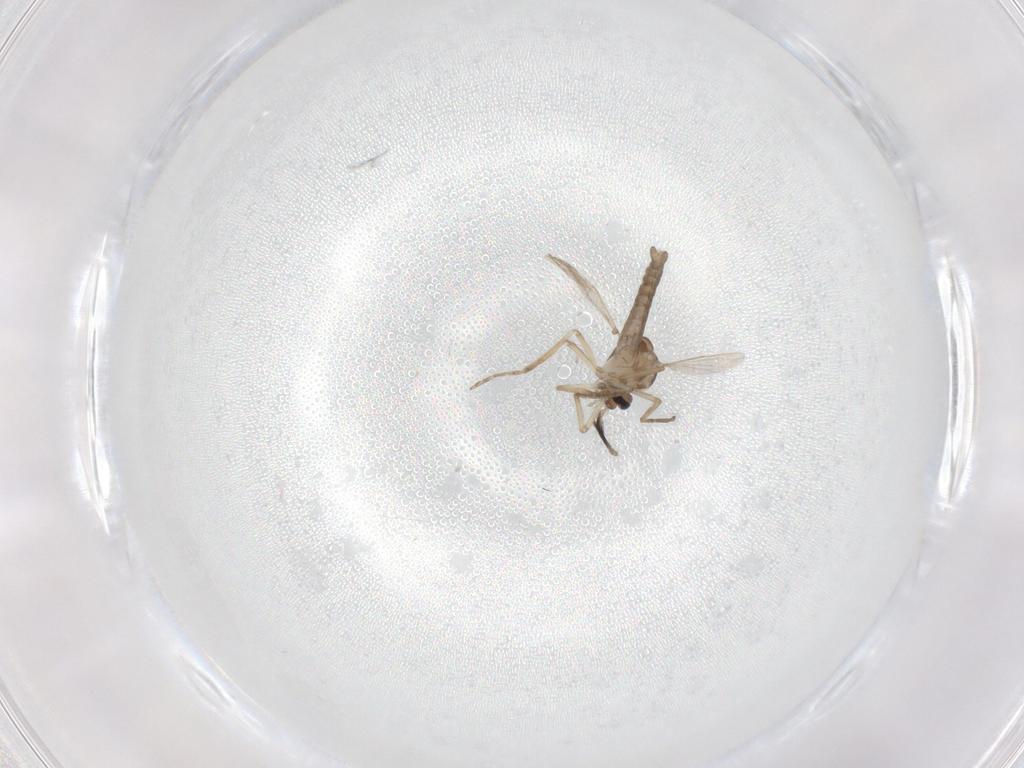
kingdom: Animalia
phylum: Arthropoda
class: Insecta
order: Diptera
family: Ceratopogonidae
